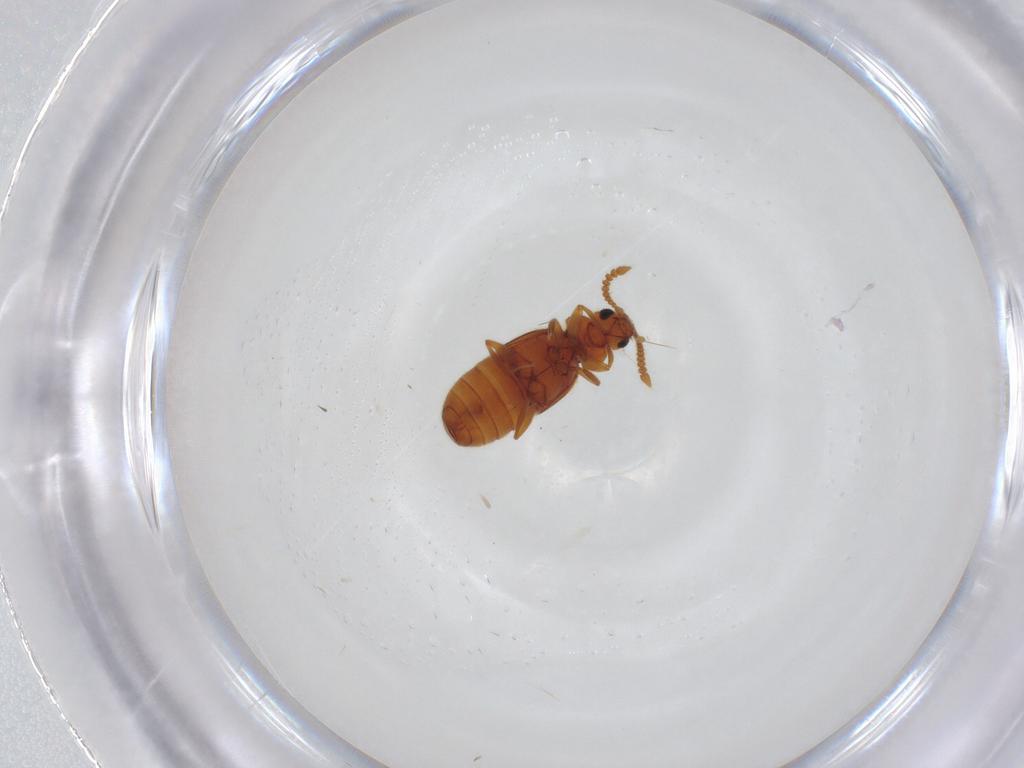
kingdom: Animalia
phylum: Arthropoda
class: Insecta
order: Coleoptera
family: Staphylinidae
